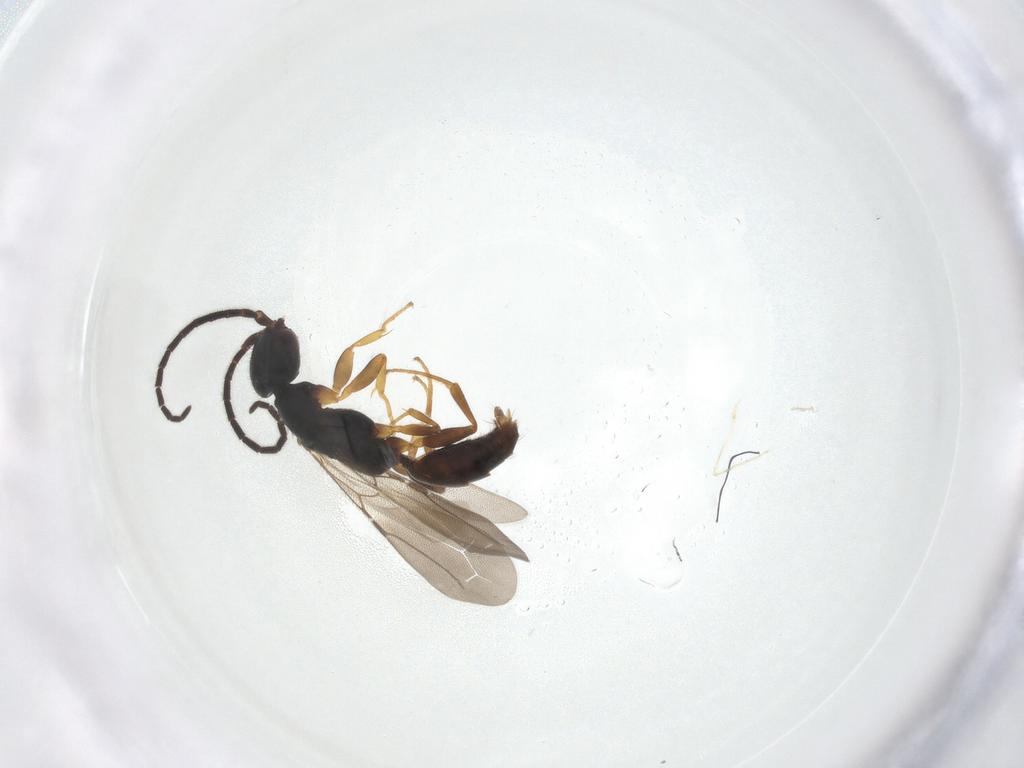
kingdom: Animalia
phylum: Arthropoda
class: Insecta
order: Hymenoptera
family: Bethylidae
